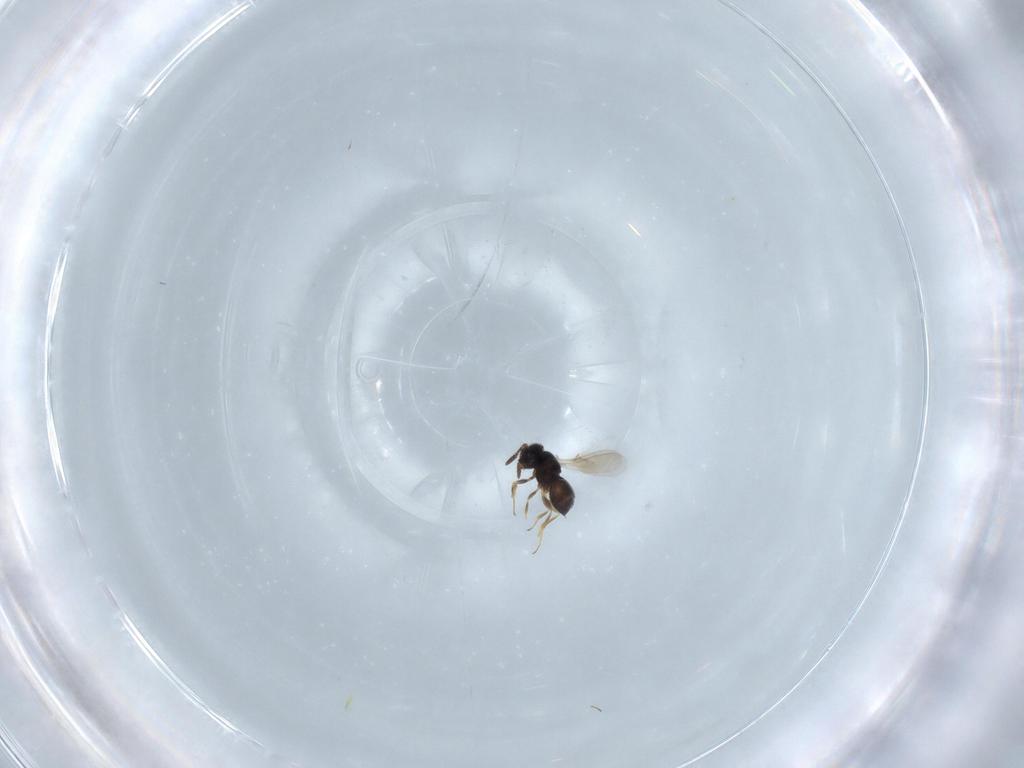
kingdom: Animalia
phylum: Arthropoda
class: Insecta
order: Hymenoptera
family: Scelionidae
